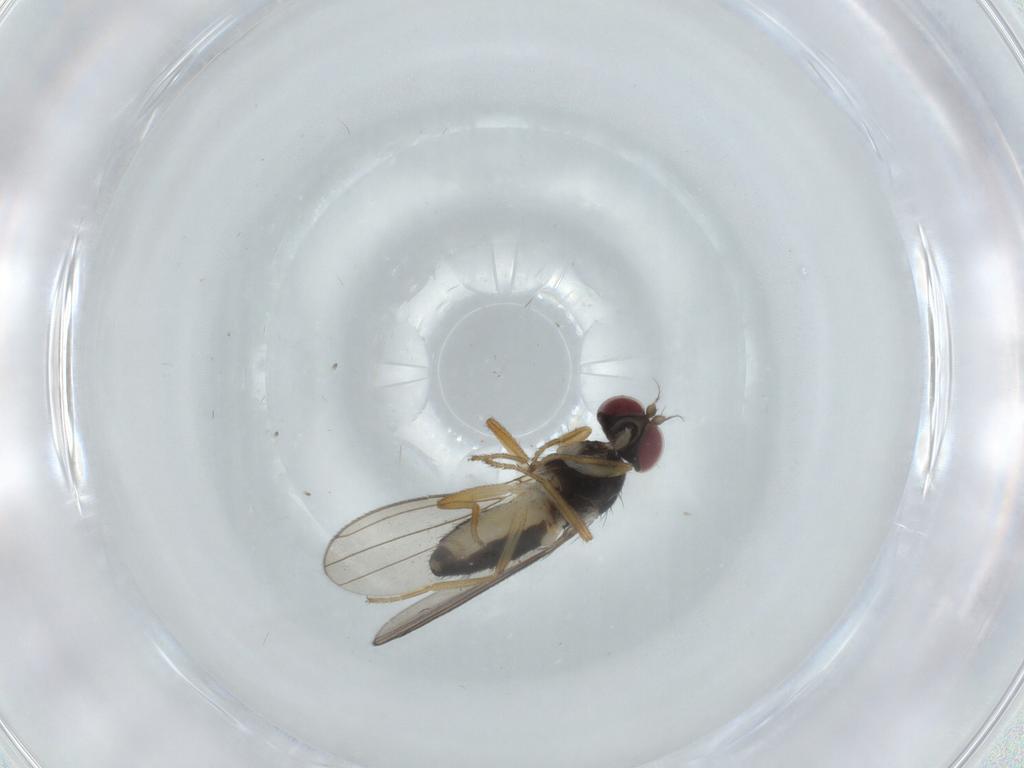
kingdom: Animalia
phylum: Arthropoda
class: Insecta
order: Diptera
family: Anthomyzidae
